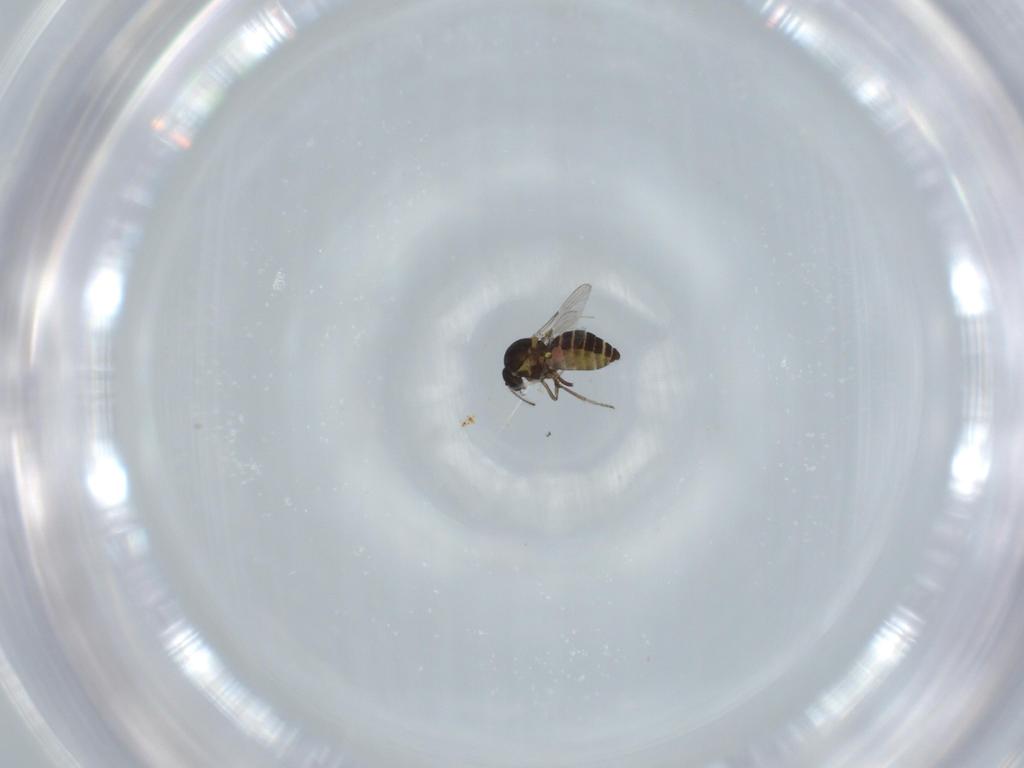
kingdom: Animalia
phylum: Arthropoda
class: Insecta
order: Diptera
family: Ceratopogonidae
